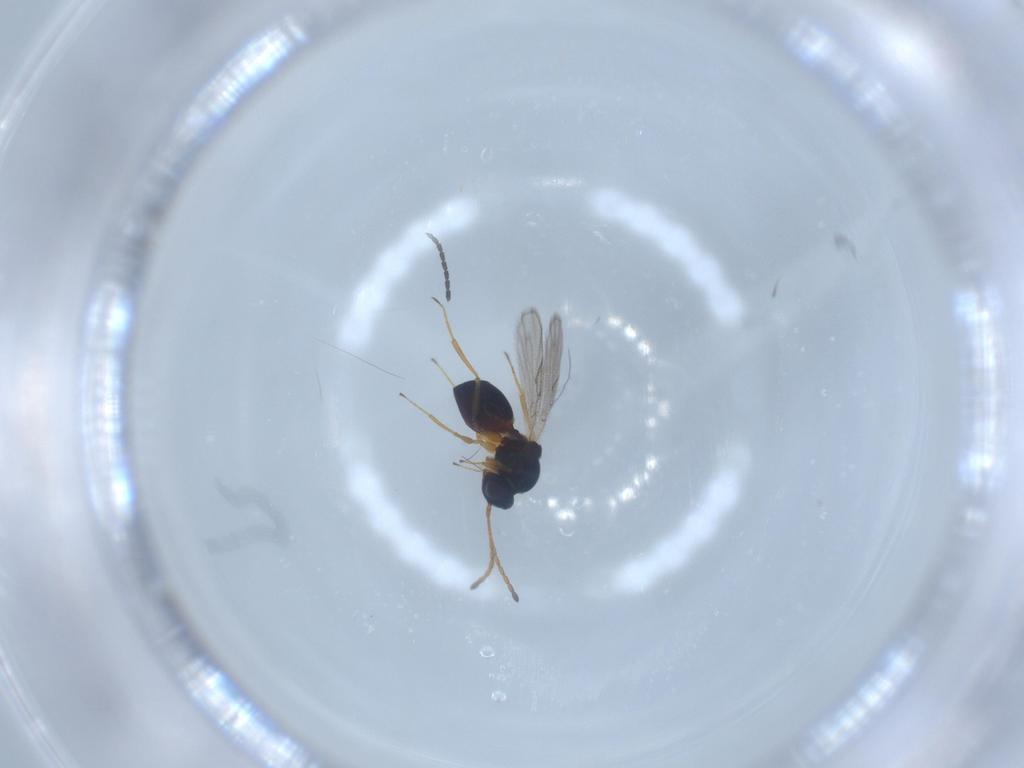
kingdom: Animalia
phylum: Arthropoda
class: Insecta
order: Hymenoptera
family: Figitidae
